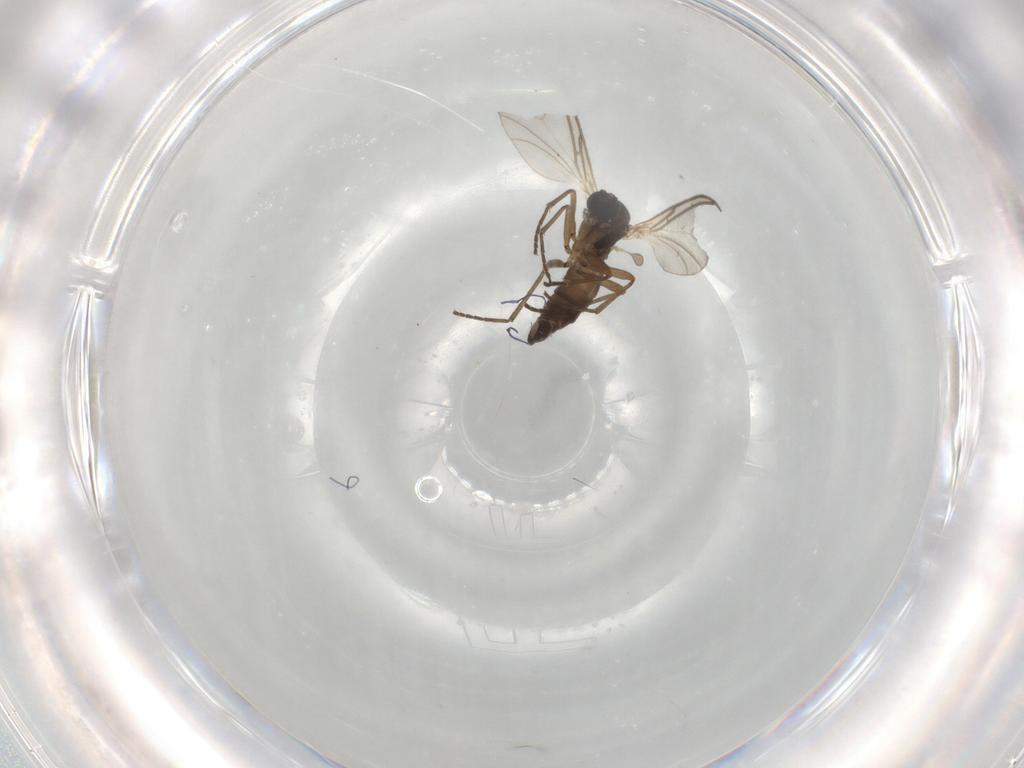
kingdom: Animalia
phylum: Arthropoda
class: Insecta
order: Diptera
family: Sciaridae
